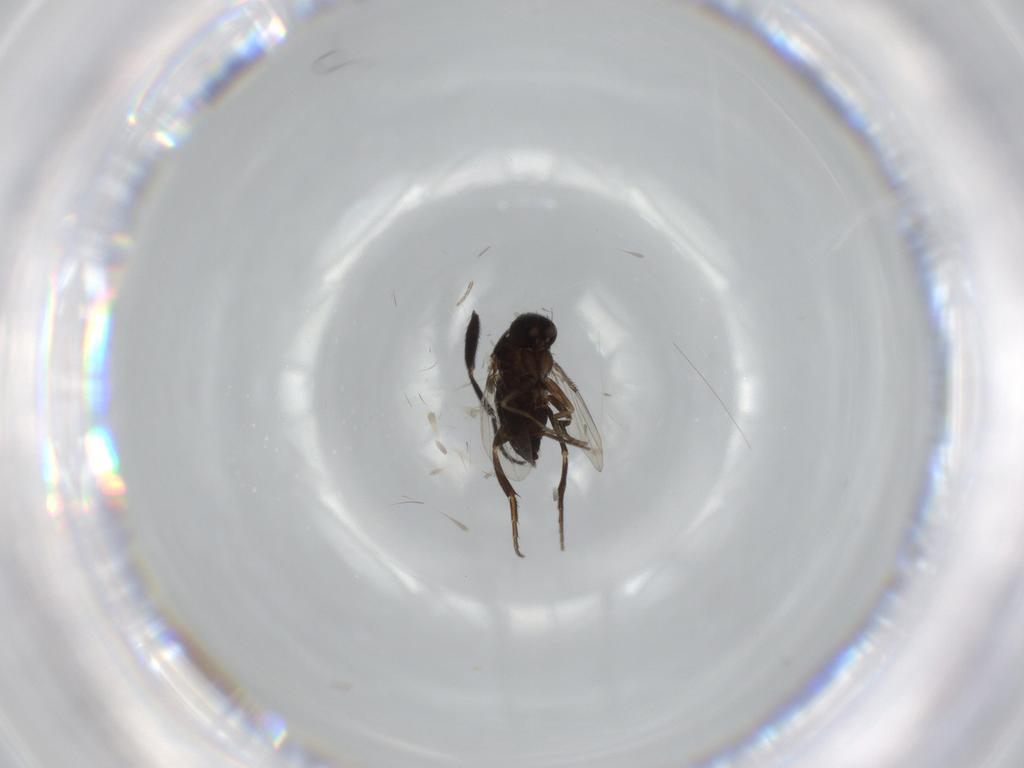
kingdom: Animalia
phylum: Arthropoda
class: Insecta
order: Diptera
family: Phoridae
